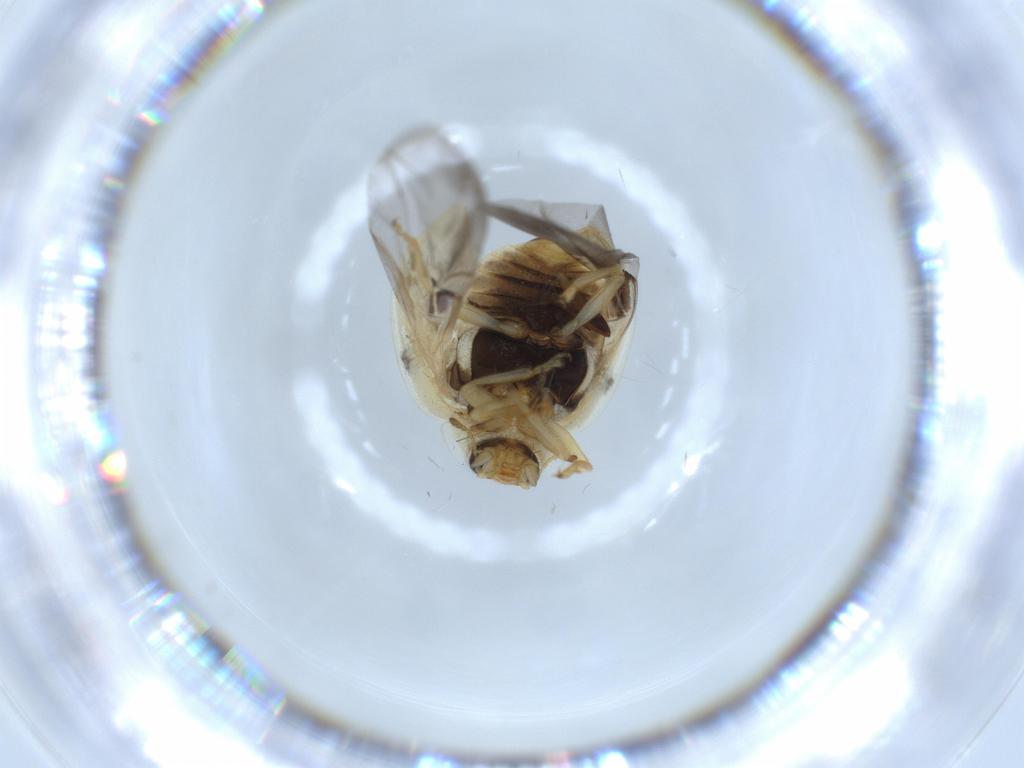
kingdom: Animalia
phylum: Arthropoda
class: Insecta
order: Coleoptera
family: Coccinellidae
